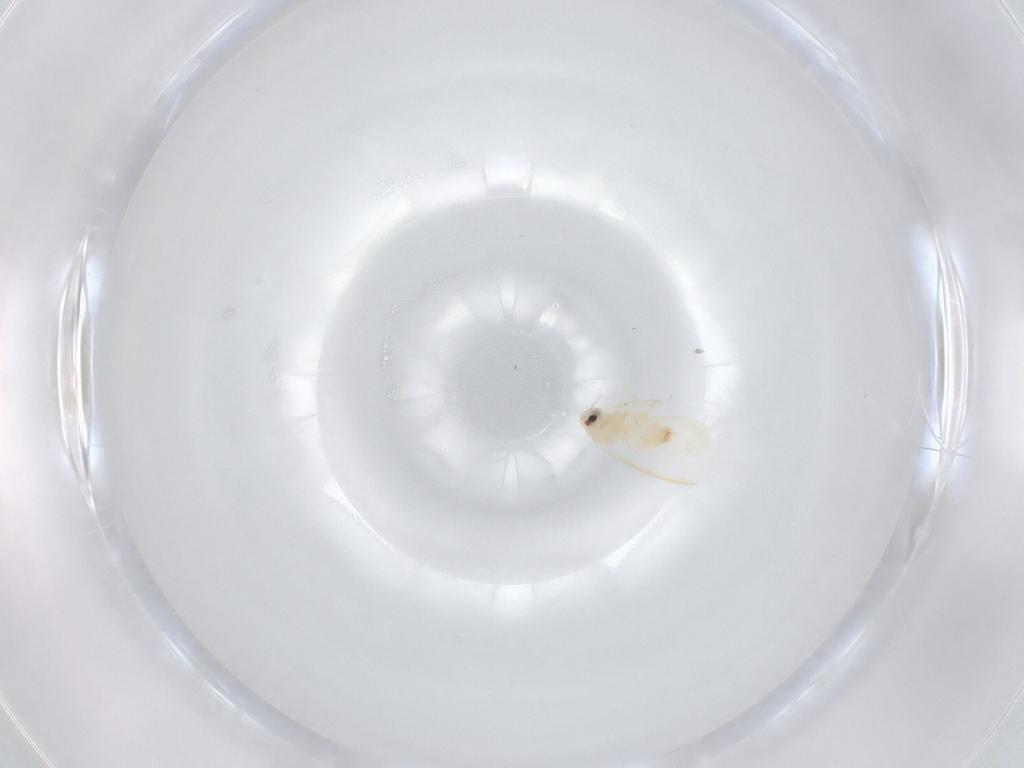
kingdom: Animalia
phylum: Arthropoda
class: Insecta
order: Hemiptera
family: Aleyrodidae
